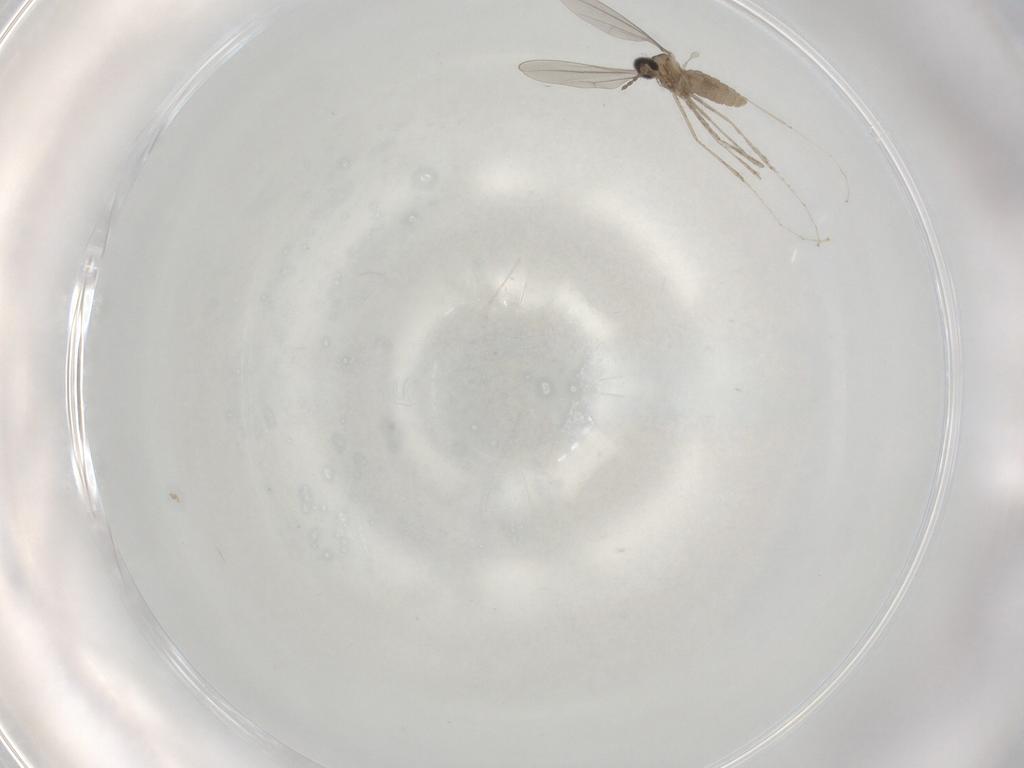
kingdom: Animalia
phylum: Arthropoda
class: Insecta
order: Diptera
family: Cecidomyiidae
